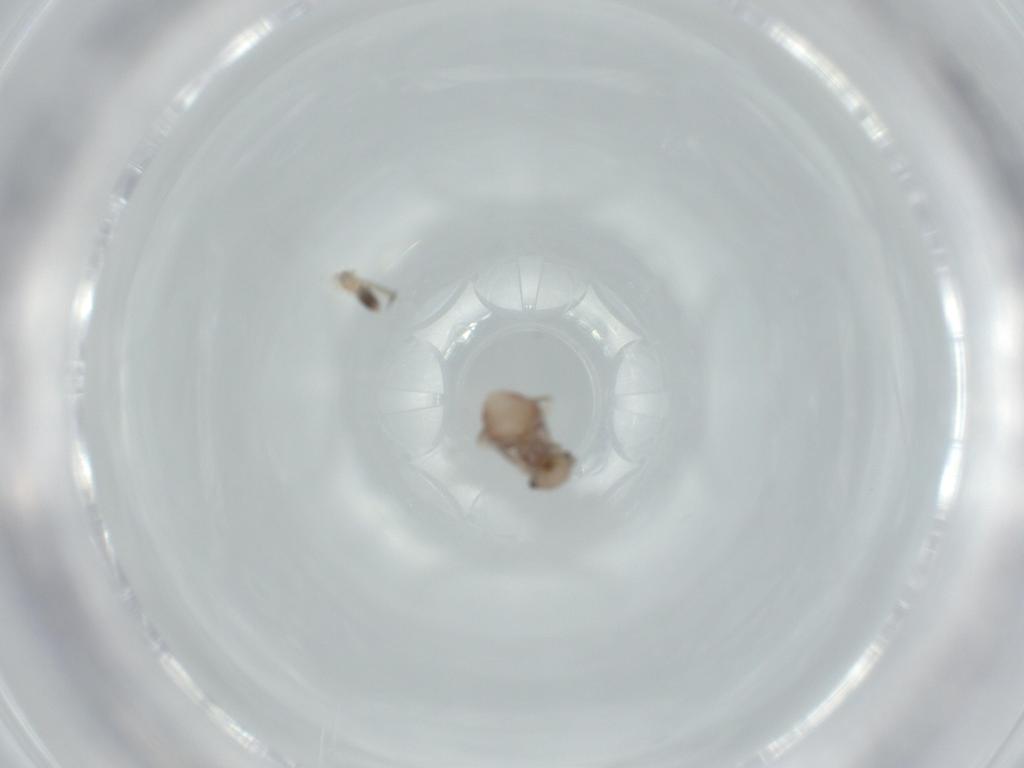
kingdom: Animalia
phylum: Arthropoda
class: Insecta
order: Psocodea
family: Ectopsocidae
